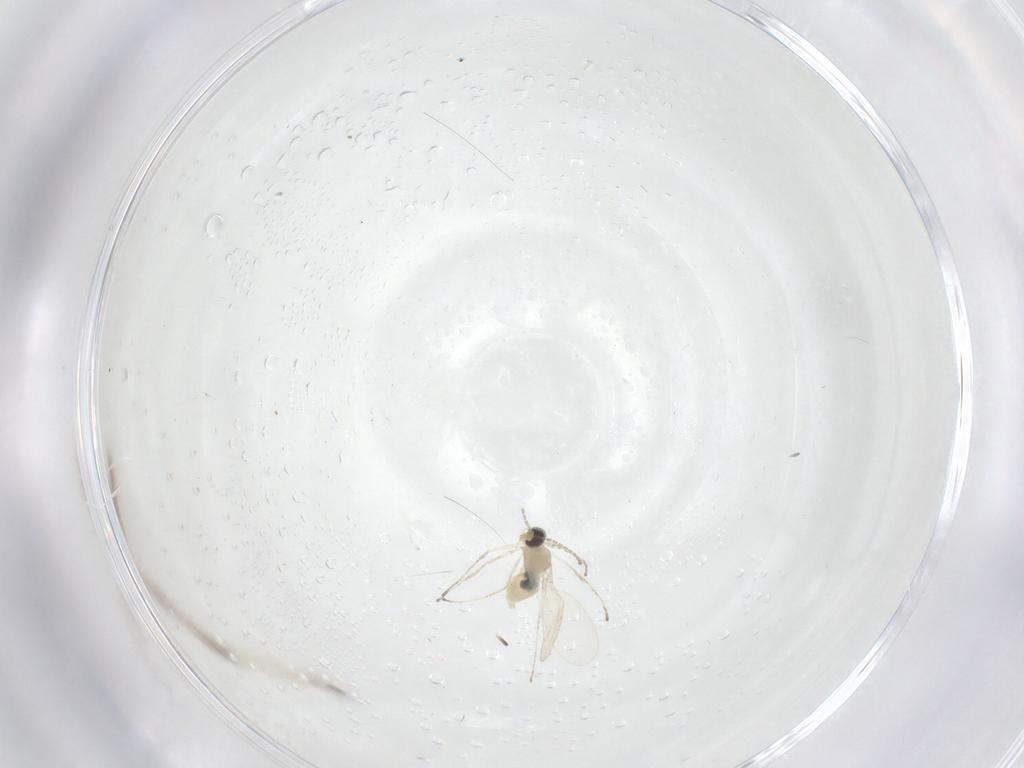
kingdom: Animalia
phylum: Arthropoda
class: Insecta
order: Diptera
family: Cecidomyiidae
